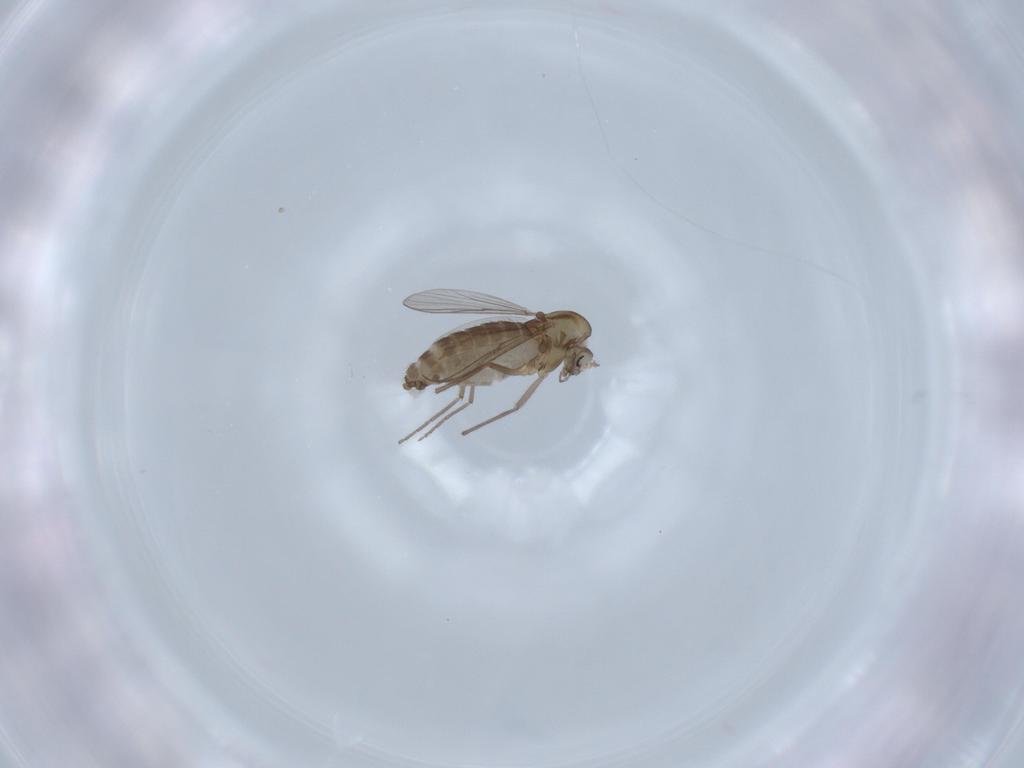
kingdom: Animalia
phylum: Arthropoda
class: Insecta
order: Diptera
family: Chironomidae
